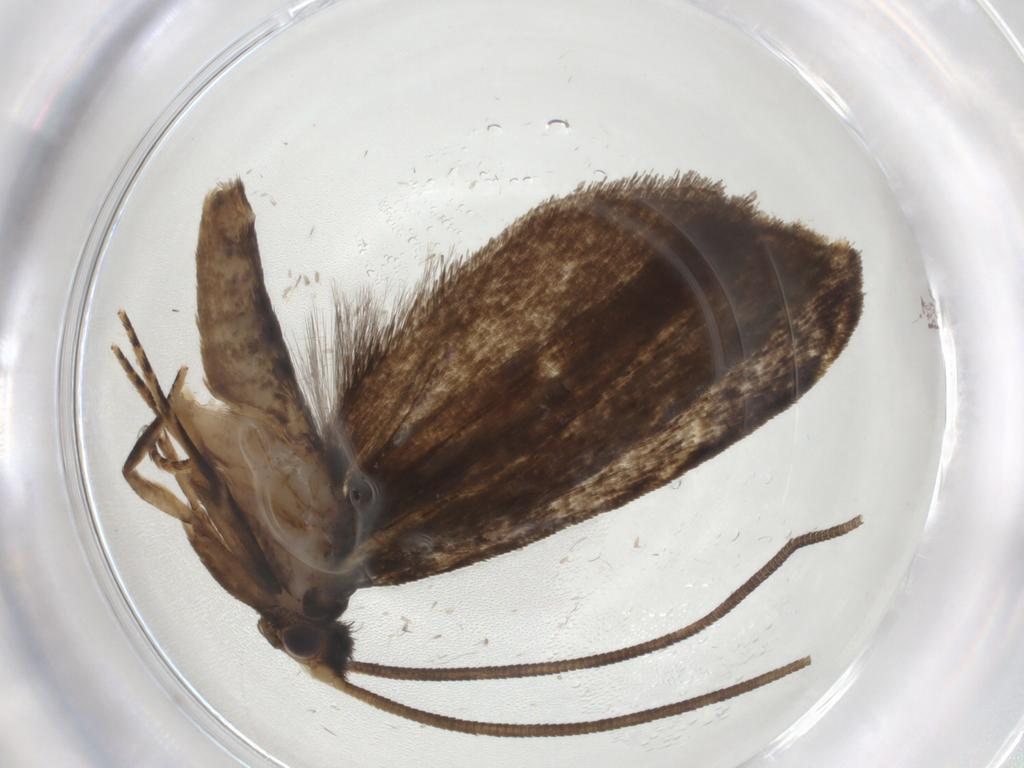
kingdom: Animalia
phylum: Arthropoda
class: Insecta
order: Lepidoptera
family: Tineidae
